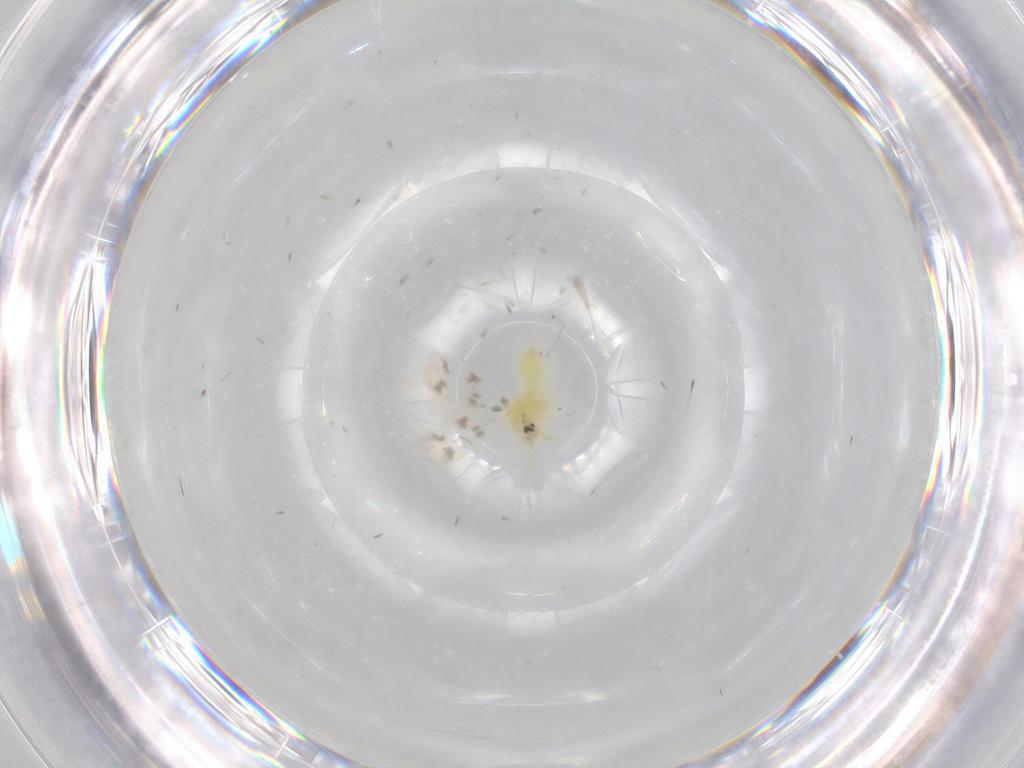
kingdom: Animalia
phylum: Arthropoda
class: Insecta
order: Hemiptera
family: Aleyrodidae
